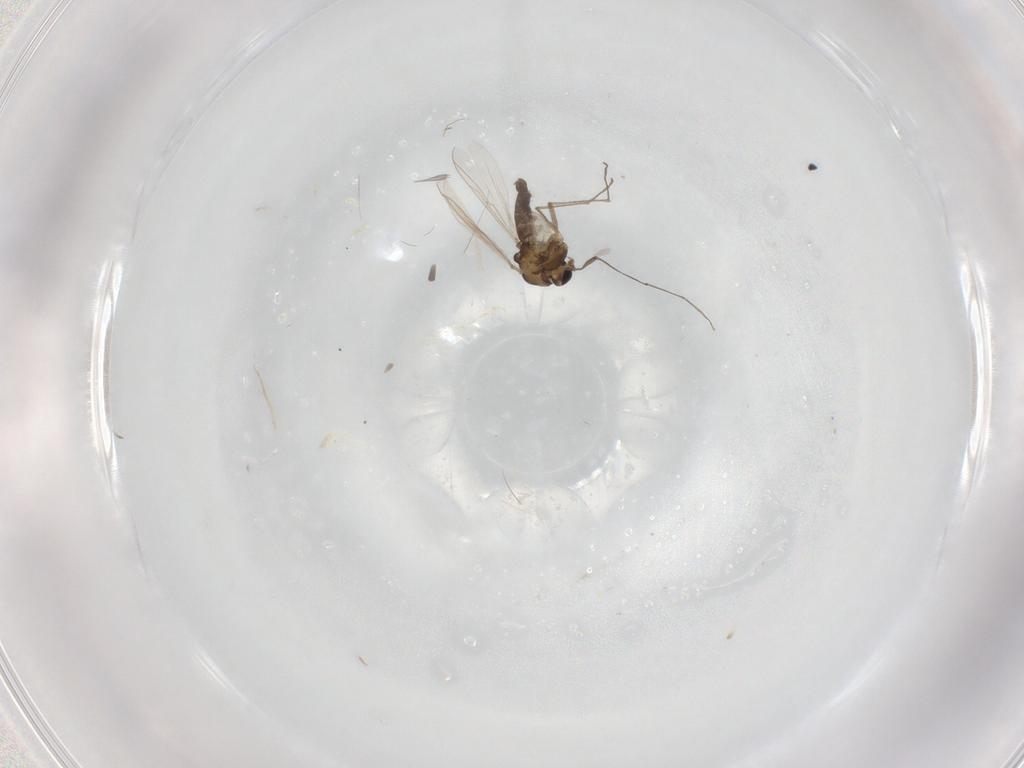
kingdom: Animalia
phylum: Arthropoda
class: Insecta
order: Diptera
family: Chironomidae
